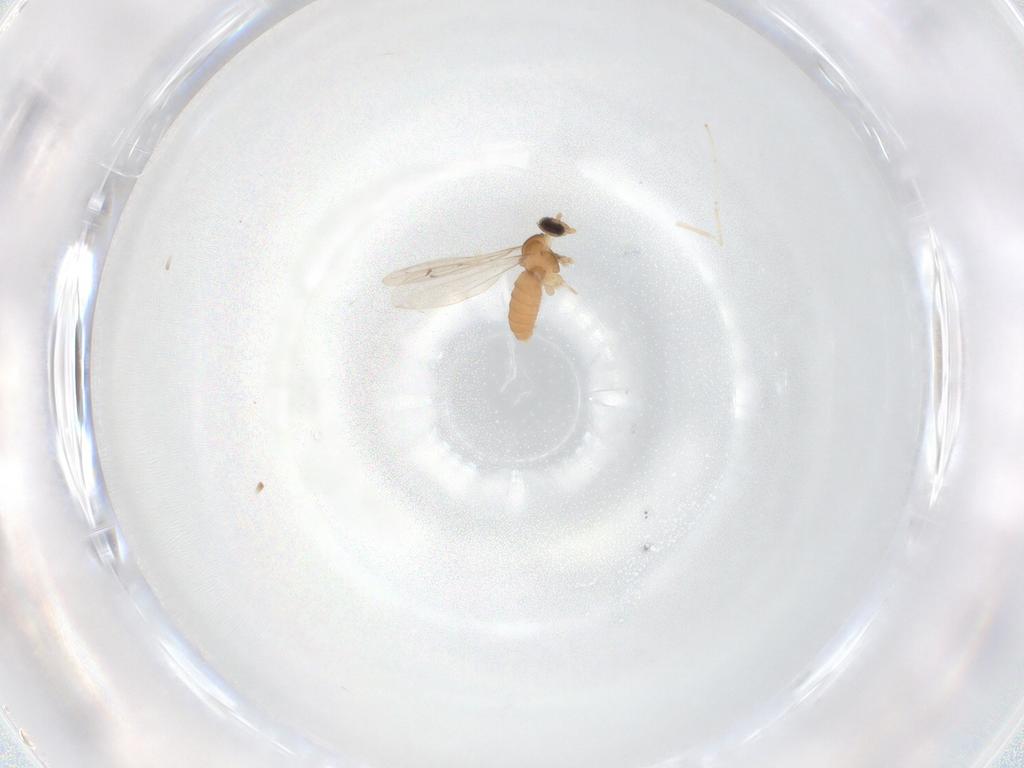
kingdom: Animalia
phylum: Arthropoda
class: Insecta
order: Diptera
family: Cecidomyiidae
